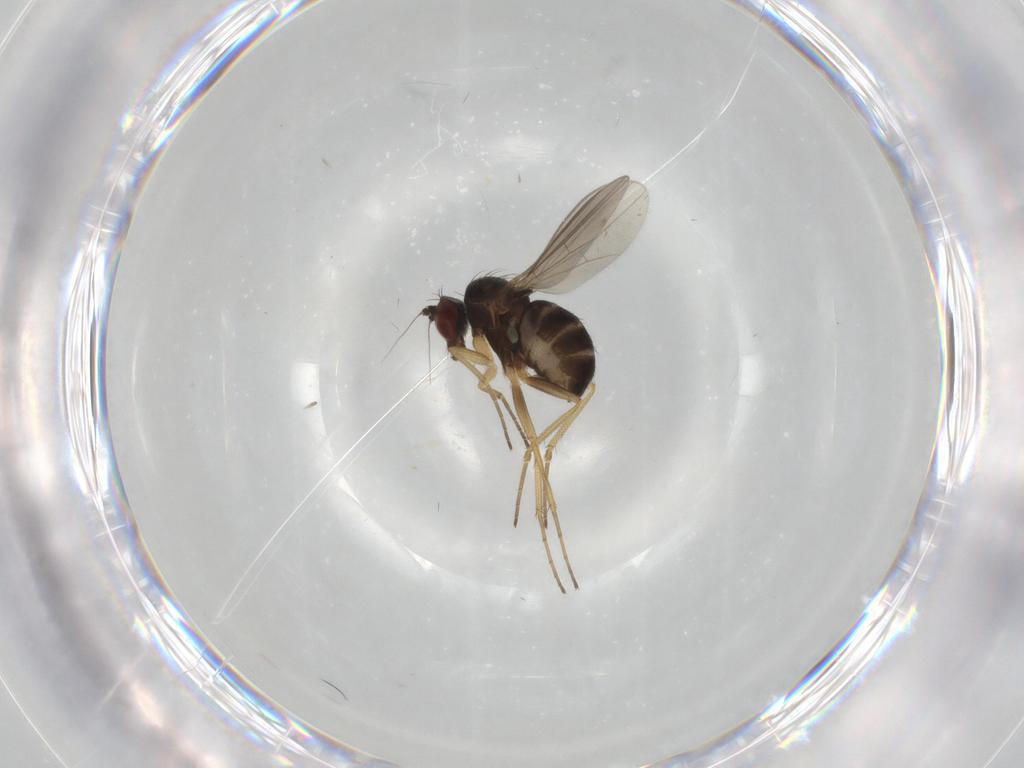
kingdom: Animalia
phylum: Arthropoda
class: Insecta
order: Diptera
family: Dolichopodidae
